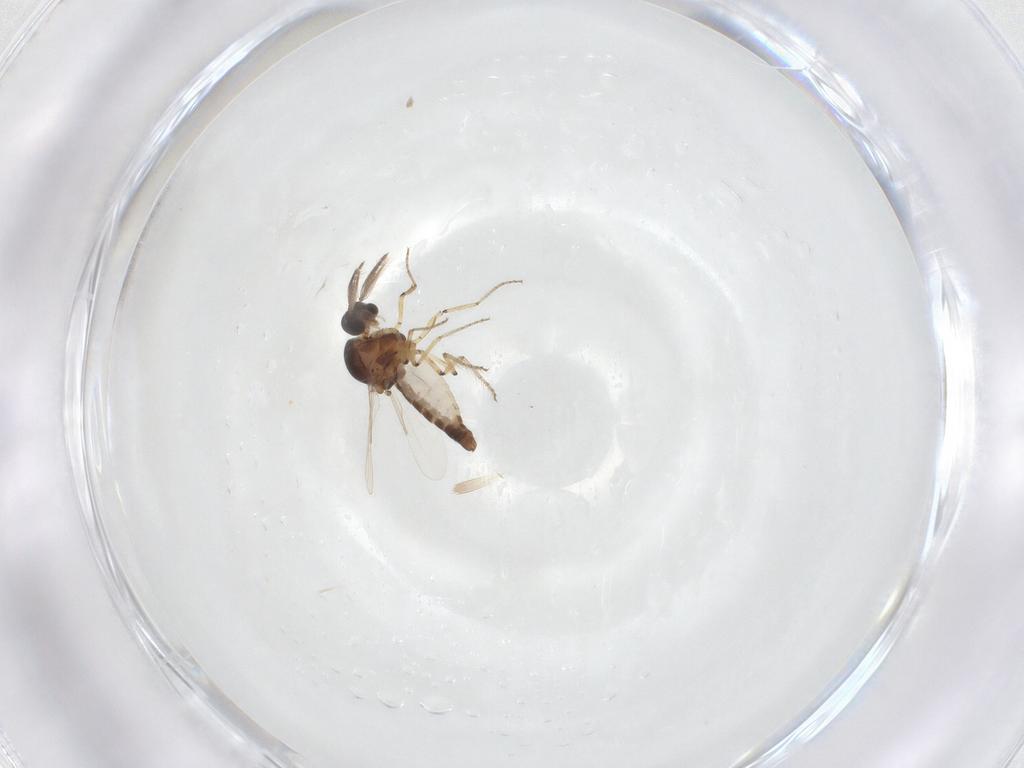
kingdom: Animalia
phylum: Arthropoda
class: Insecta
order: Diptera
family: Ceratopogonidae
